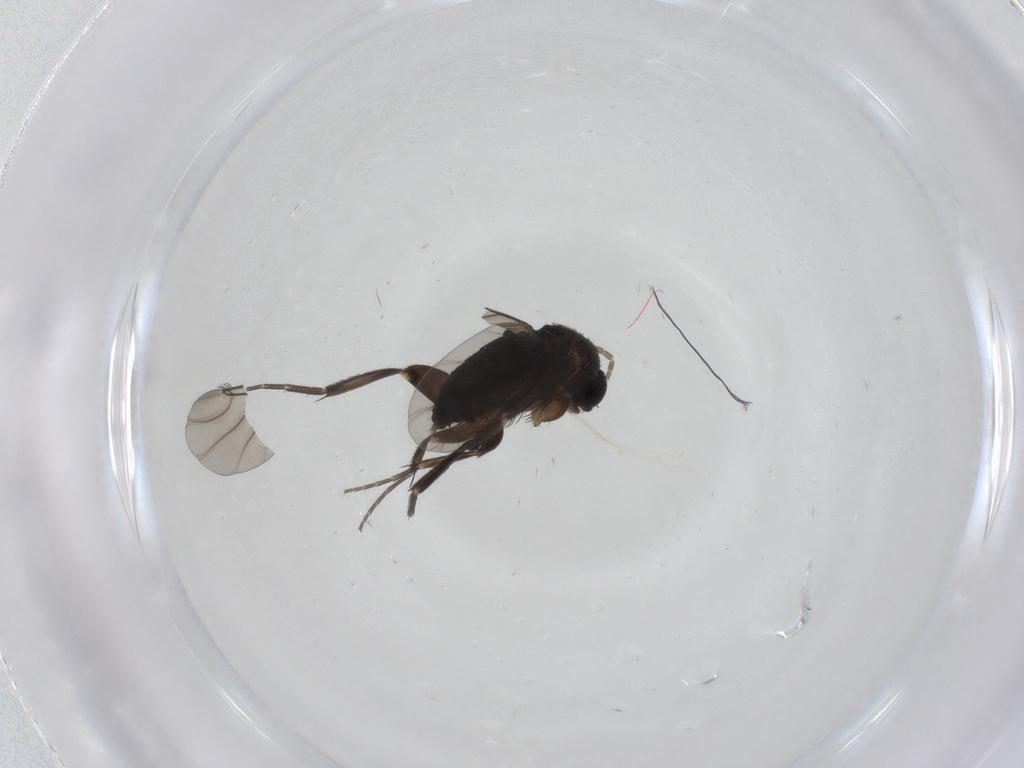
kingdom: Animalia
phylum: Arthropoda
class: Insecta
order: Diptera
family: Phoridae
